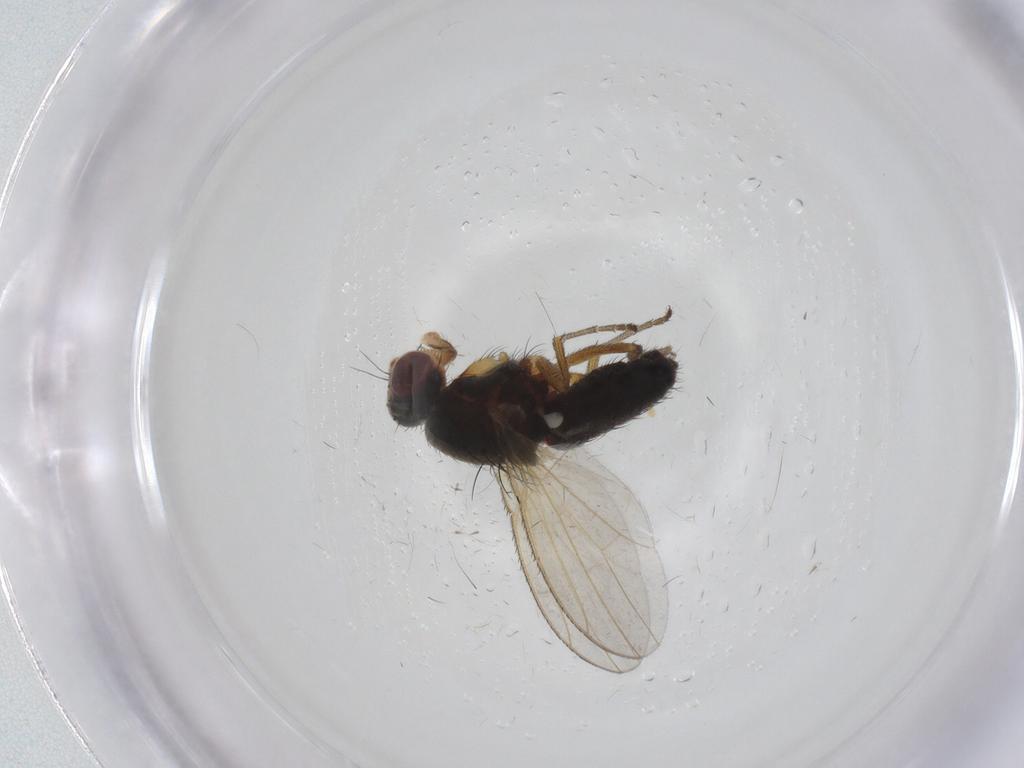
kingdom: Animalia
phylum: Arthropoda
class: Insecta
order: Diptera
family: Heleomyzidae
